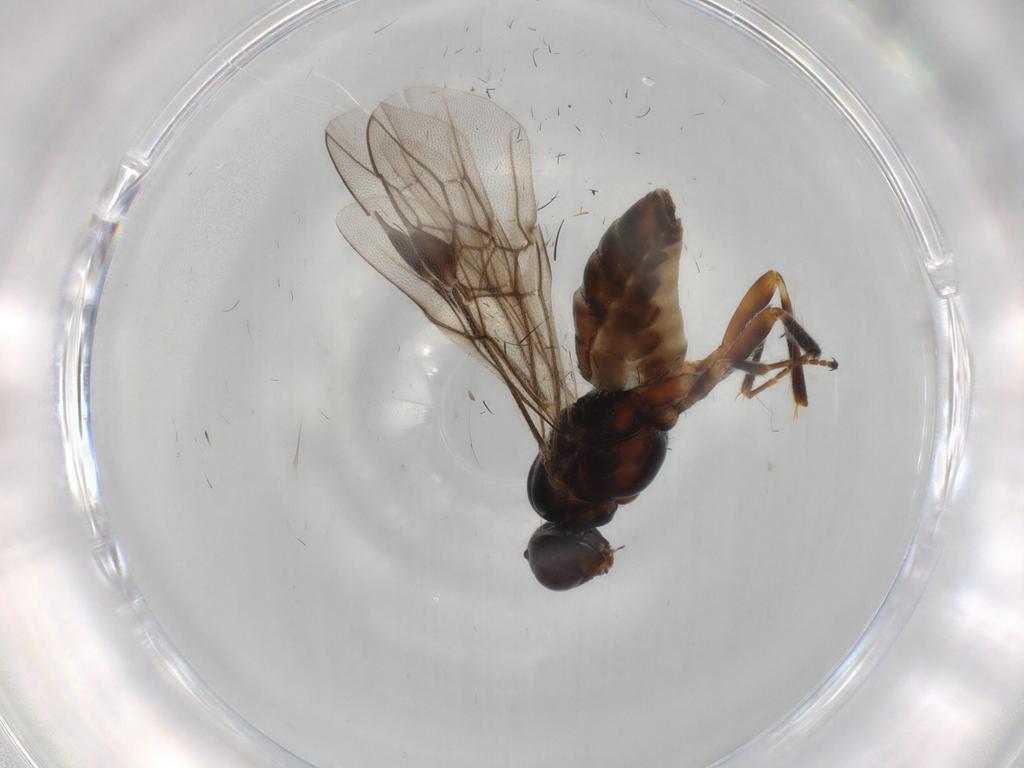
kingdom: Animalia
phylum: Arthropoda
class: Insecta
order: Hymenoptera
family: Braconidae
